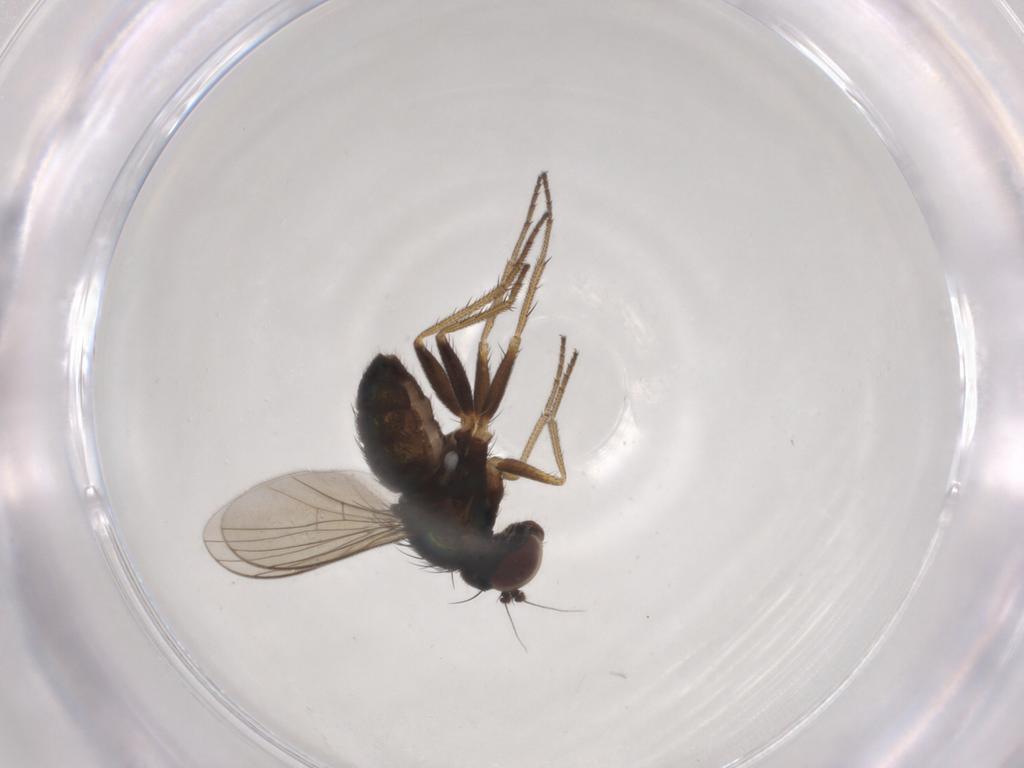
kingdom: Animalia
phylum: Arthropoda
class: Insecta
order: Diptera
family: Dolichopodidae
